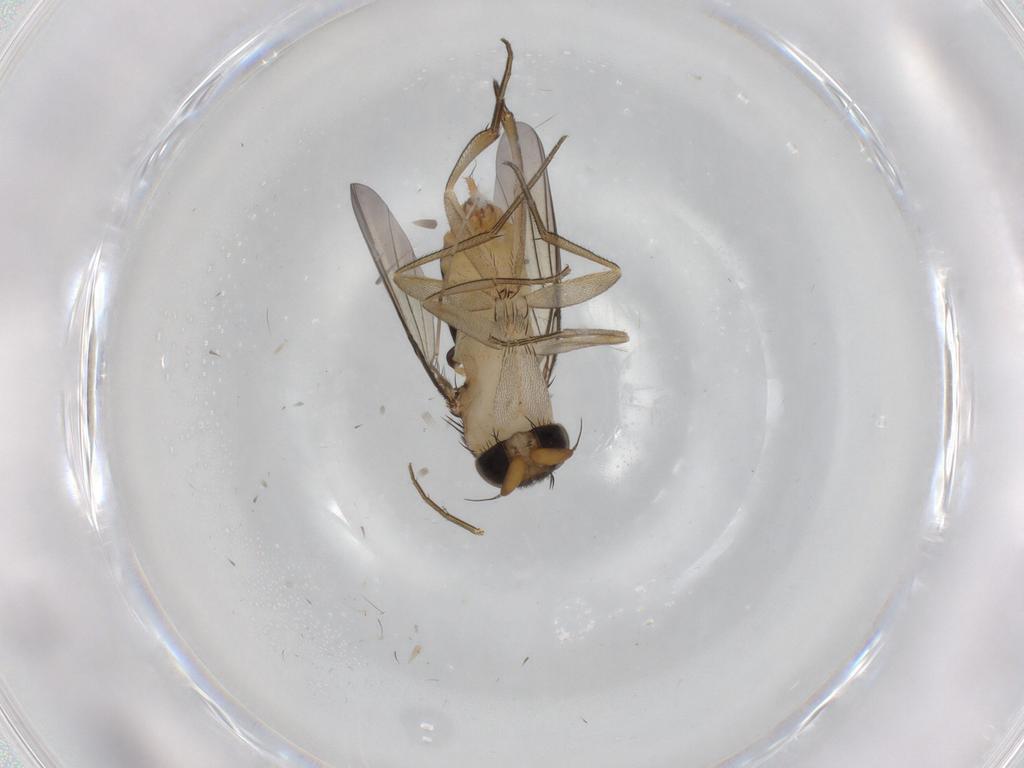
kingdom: Animalia
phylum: Arthropoda
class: Insecta
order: Diptera
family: Phoridae
